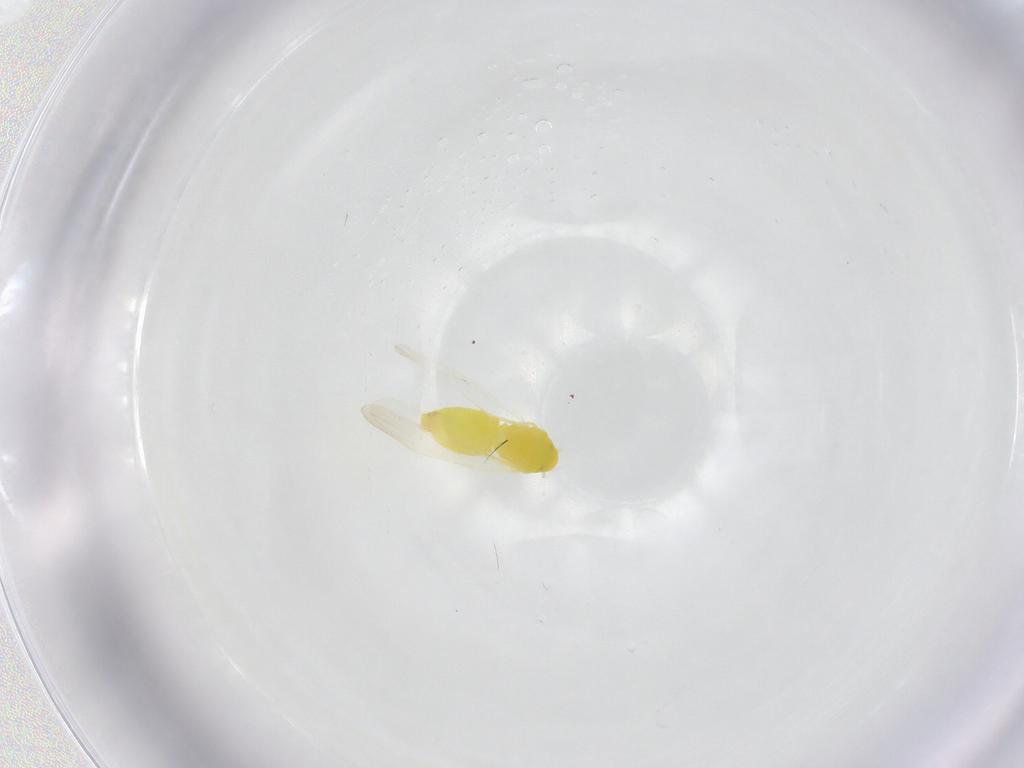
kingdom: Animalia
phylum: Arthropoda
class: Insecta
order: Hemiptera
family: Aleyrodidae
